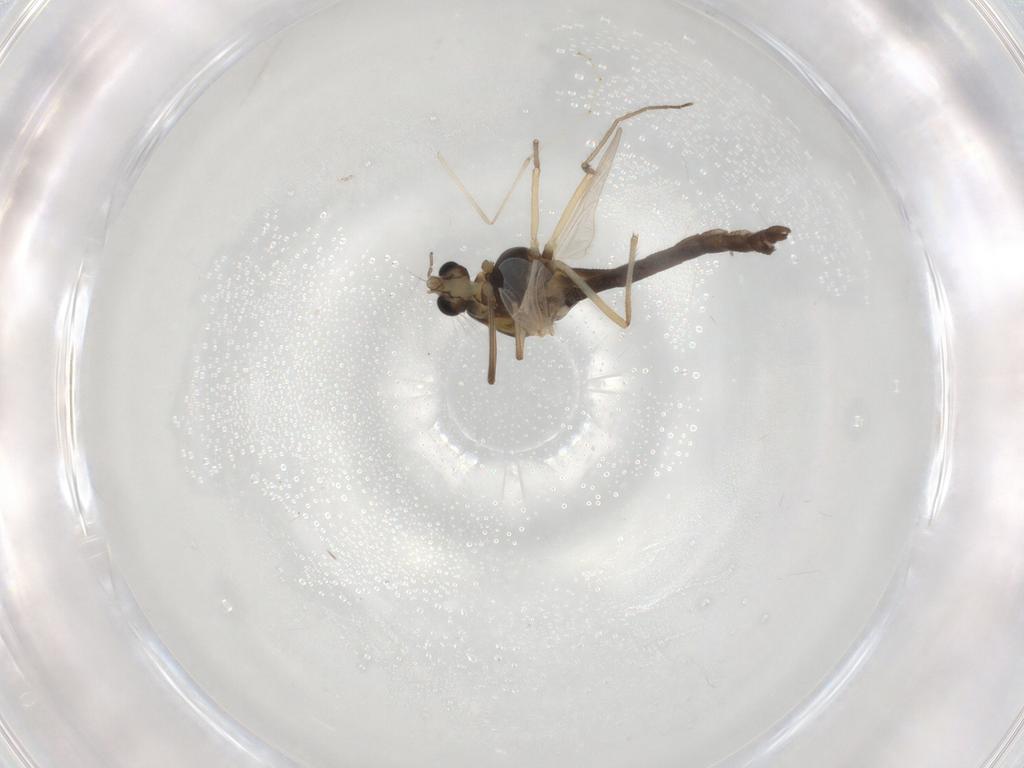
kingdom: Animalia
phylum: Arthropoda
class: Insecta
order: Diptera
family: Chironomidae
